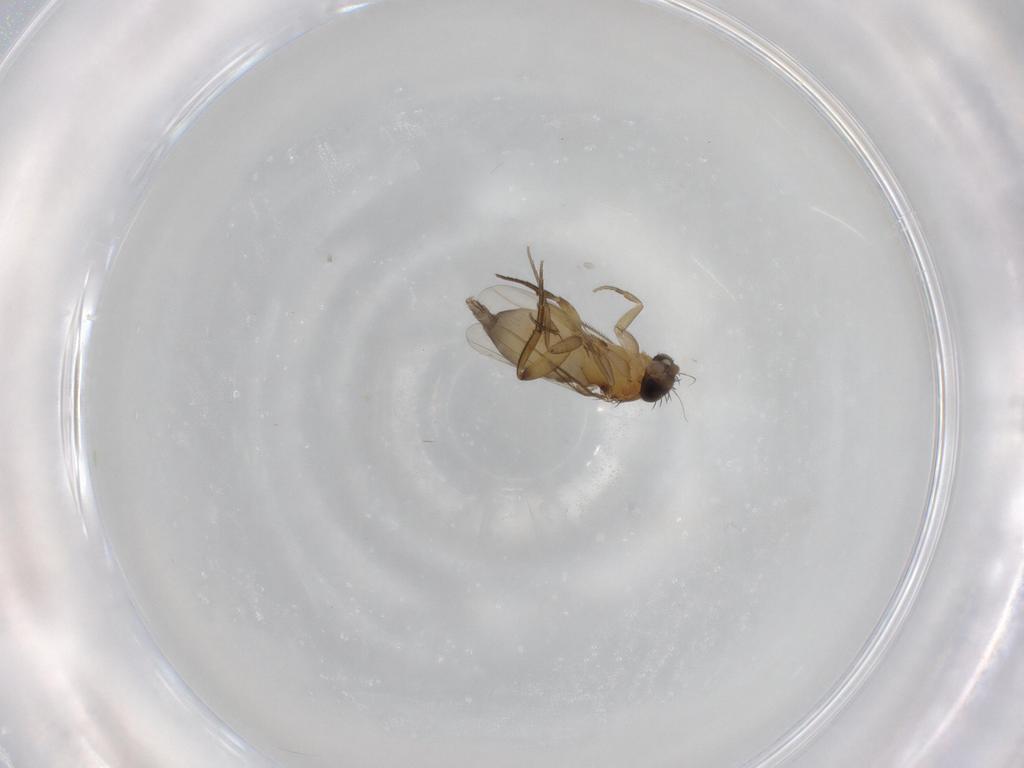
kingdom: Animalia
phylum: Arthropoda
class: Insecta
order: Diptera
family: Phoridae
